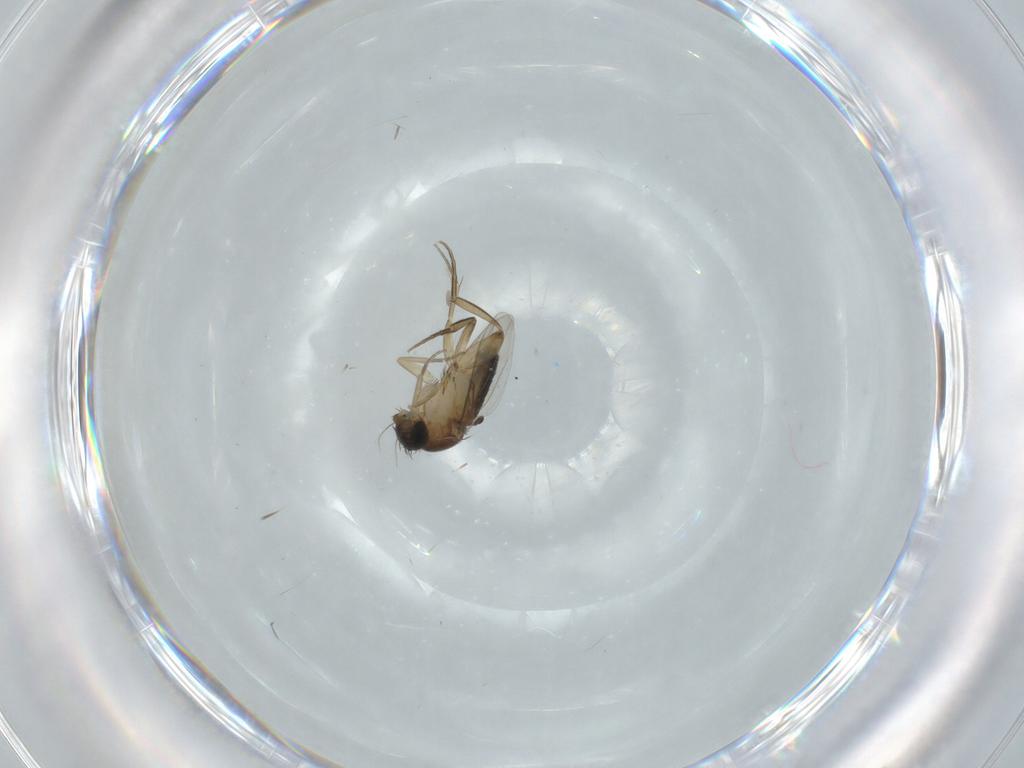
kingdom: Animalia
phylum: Arthropoda
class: Insecta
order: Diptera
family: Phoridae
